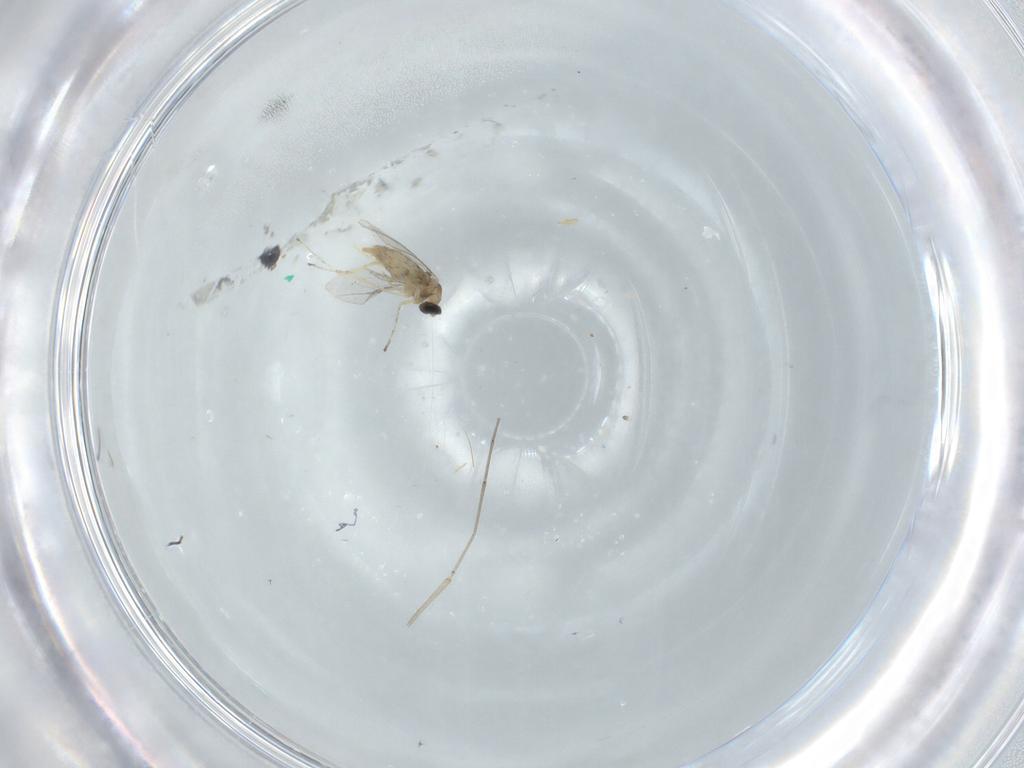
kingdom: Animalia
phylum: Arthropoda
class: Insecta
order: Diptera
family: Cecidomyiidae
